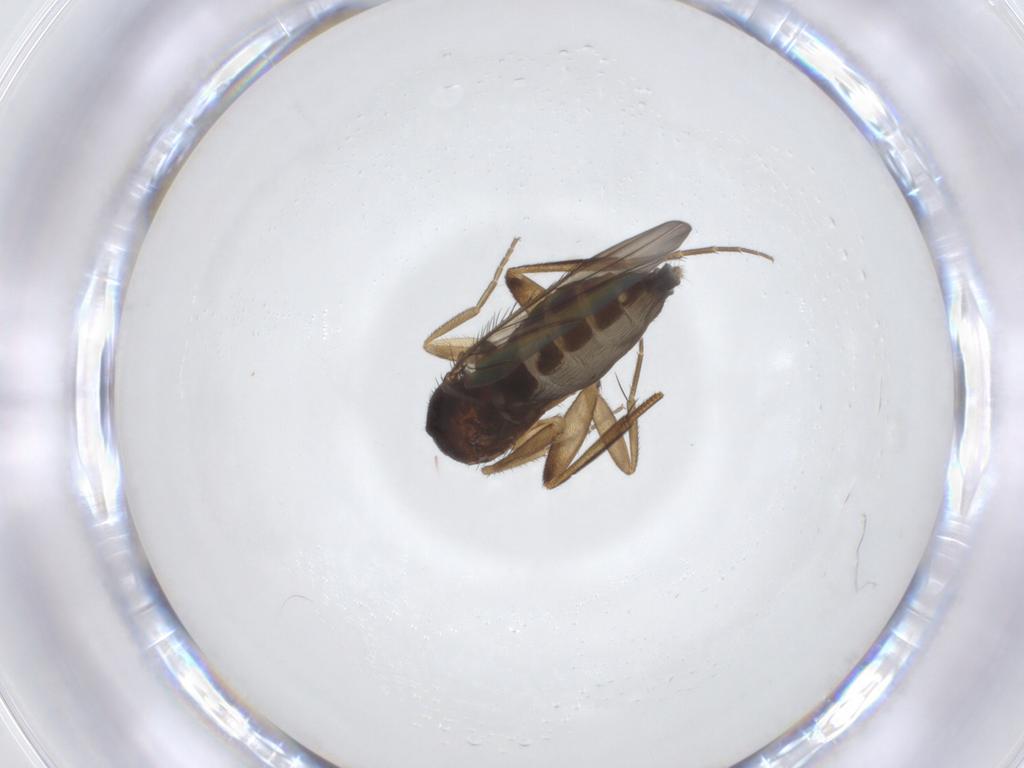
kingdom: Animalia
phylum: Arthropoda
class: Insecta
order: Diptera
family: Phoridae
